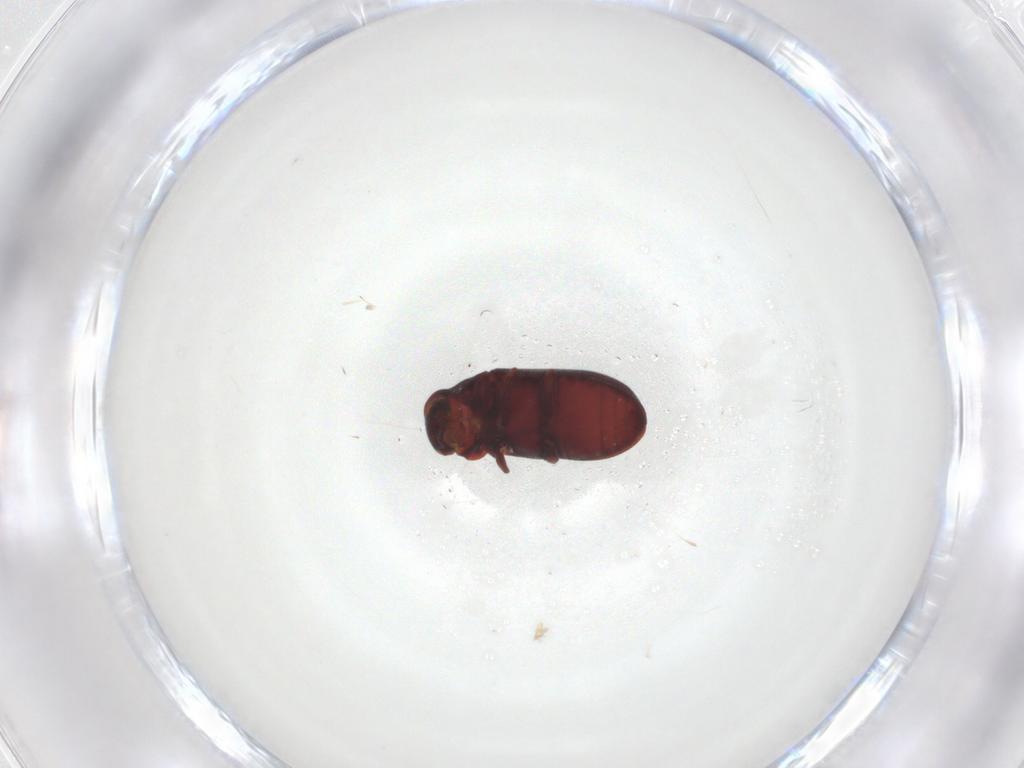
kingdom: Animalia
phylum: Arthropoda
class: Insecta
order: Coleoptera
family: Ptinidae
